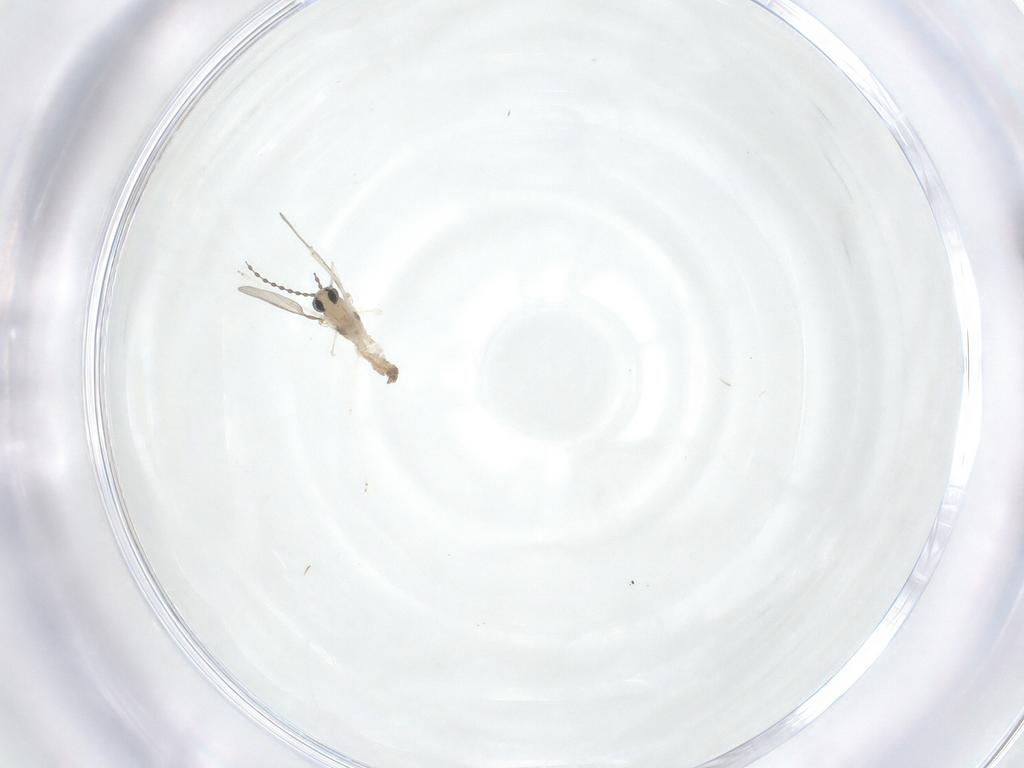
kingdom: Animalia
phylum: Arthropoda
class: Insecta
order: Diptera
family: Cecidomyiidae
